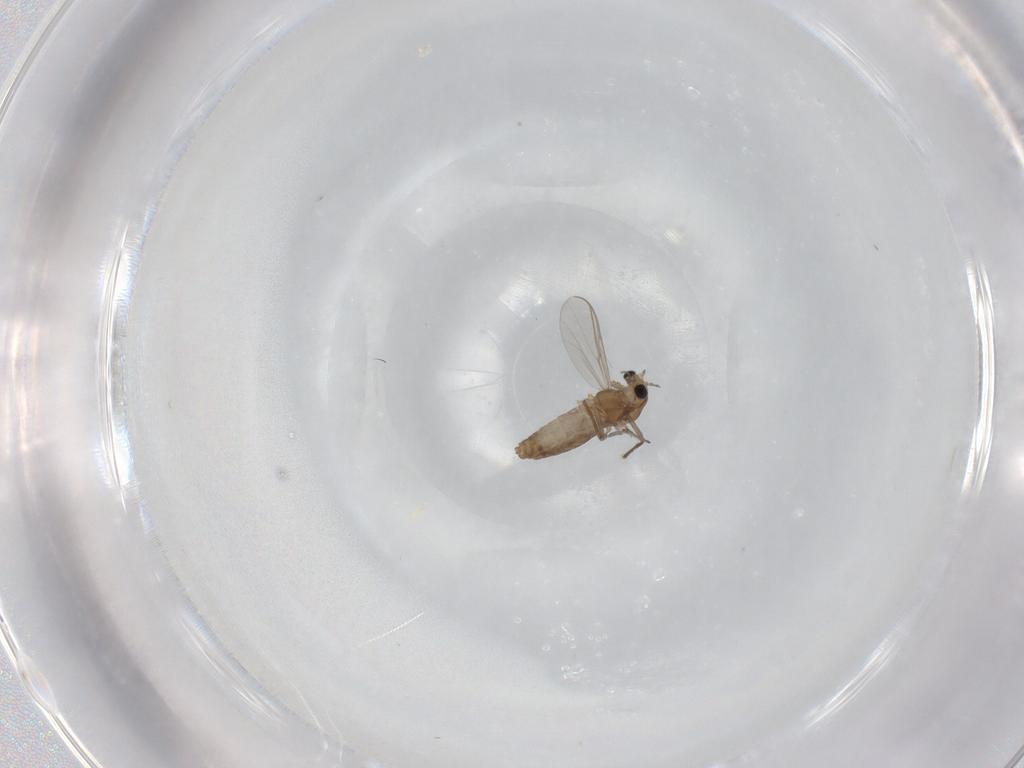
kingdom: Animalia
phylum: Arthropoda
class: Insecta
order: Diptera
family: Chironomidae
